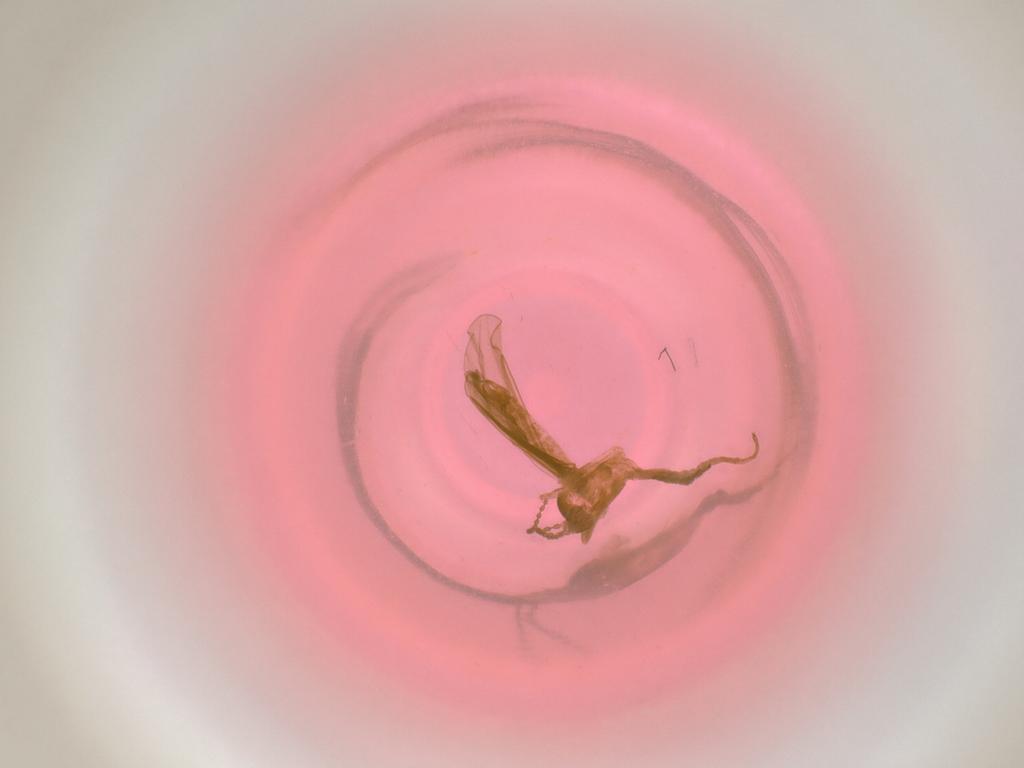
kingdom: Animalia
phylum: Arthropoda
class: Insecta
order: Diptera
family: Cecidomyiidae
